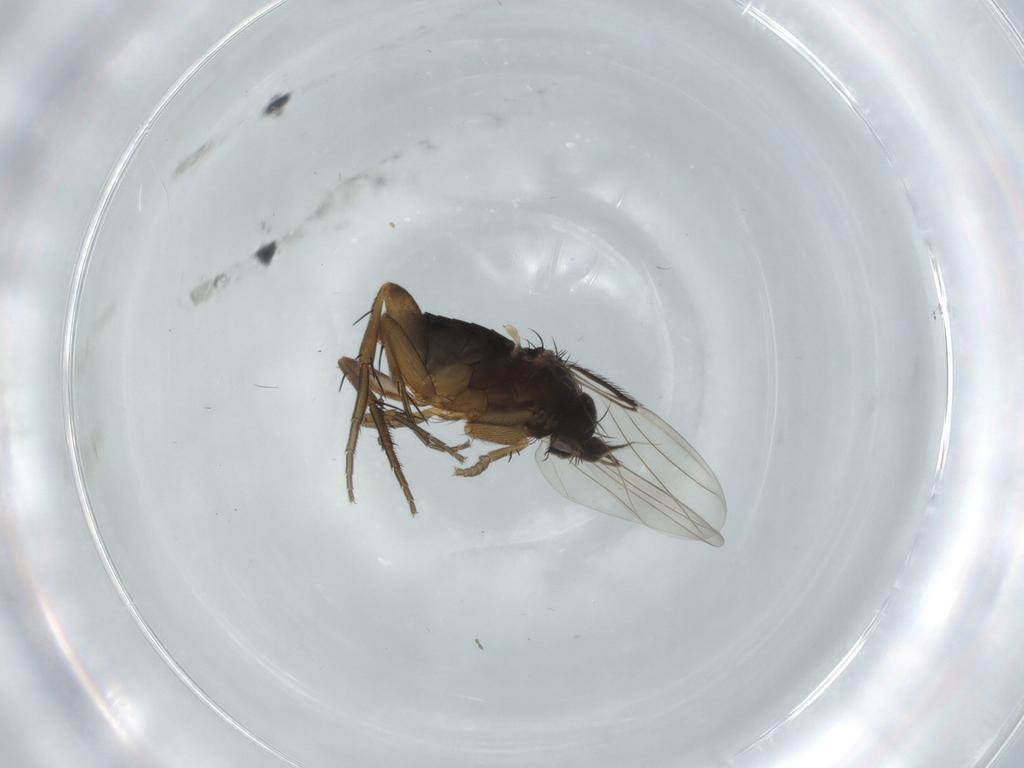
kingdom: Animalia
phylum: Arthropoda
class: Insecta
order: Diptera
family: Phoridae
